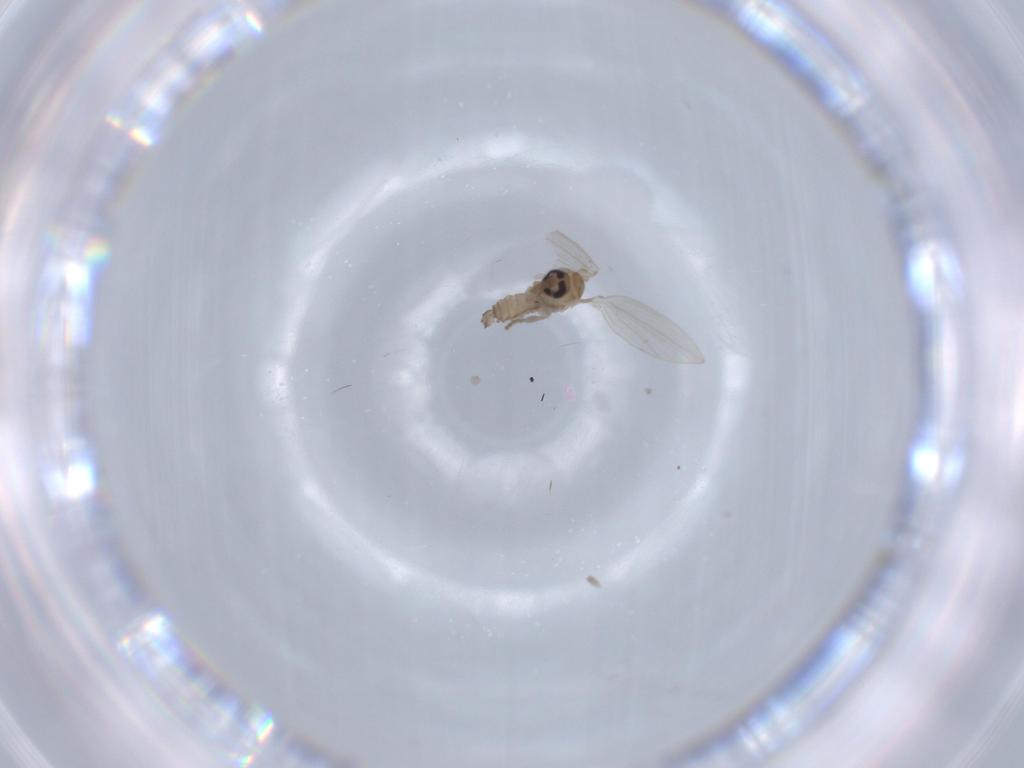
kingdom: Animalia
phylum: Arthropoda
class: Insecta
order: Diptera
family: Psychodidae
